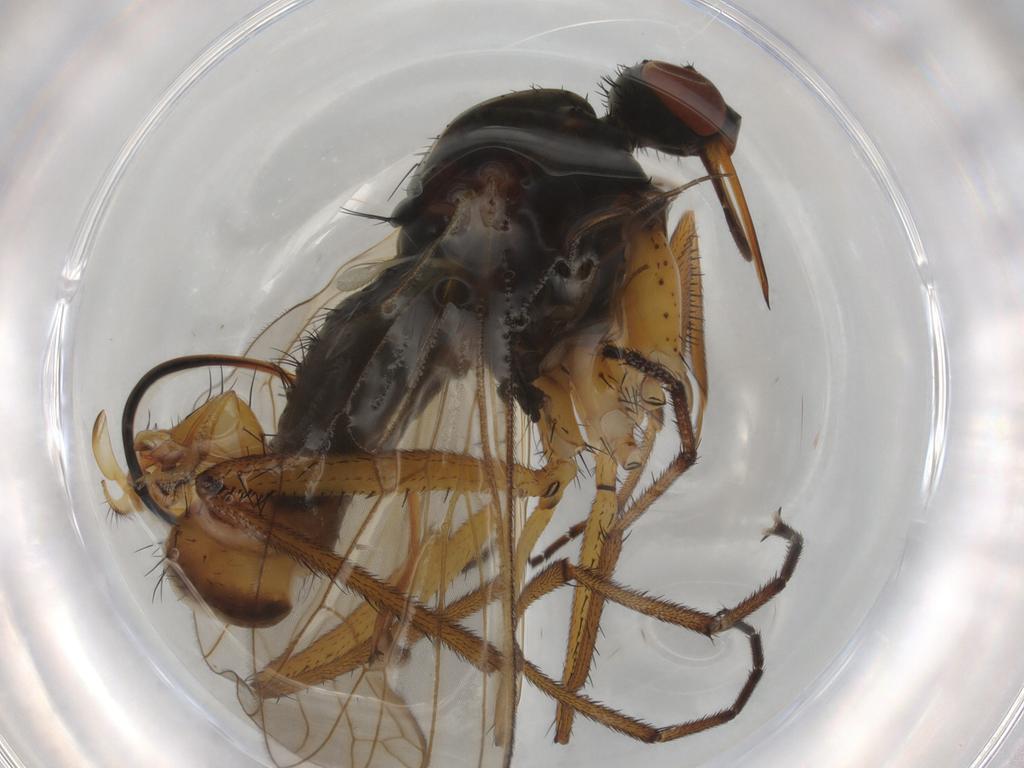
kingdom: Animalia
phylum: Arthropoda
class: Insecta
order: Diptera
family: Empididae
